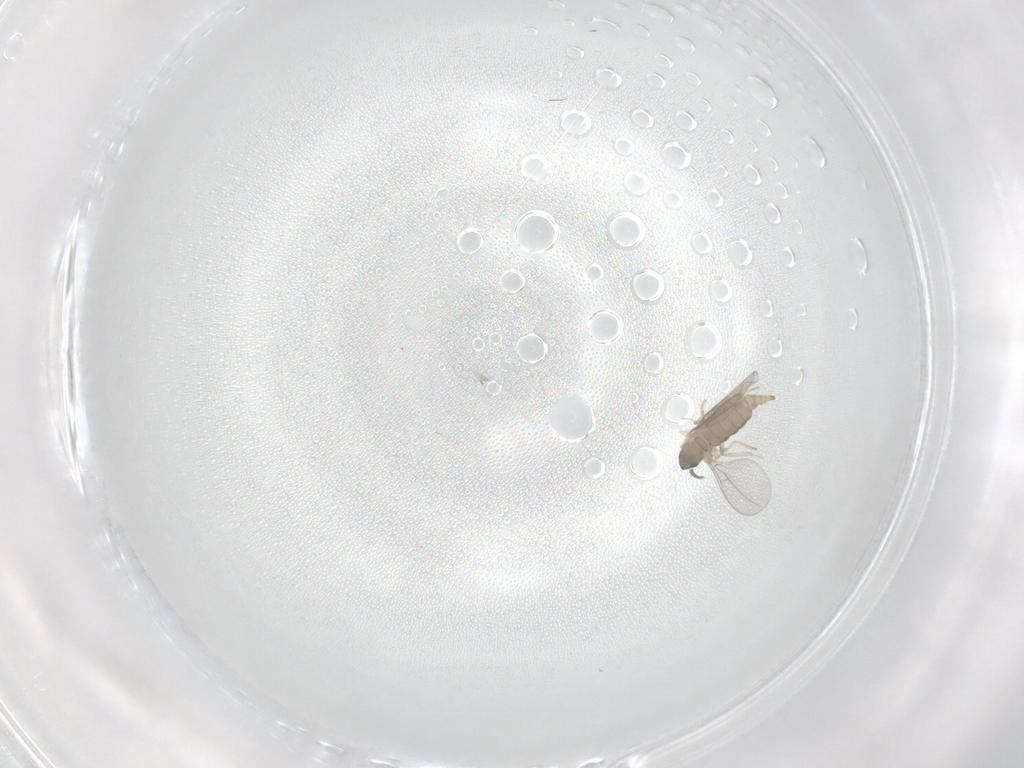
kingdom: Animalia
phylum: Arthropoda
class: Insecta
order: Diptera
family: Cecidomyiidae
